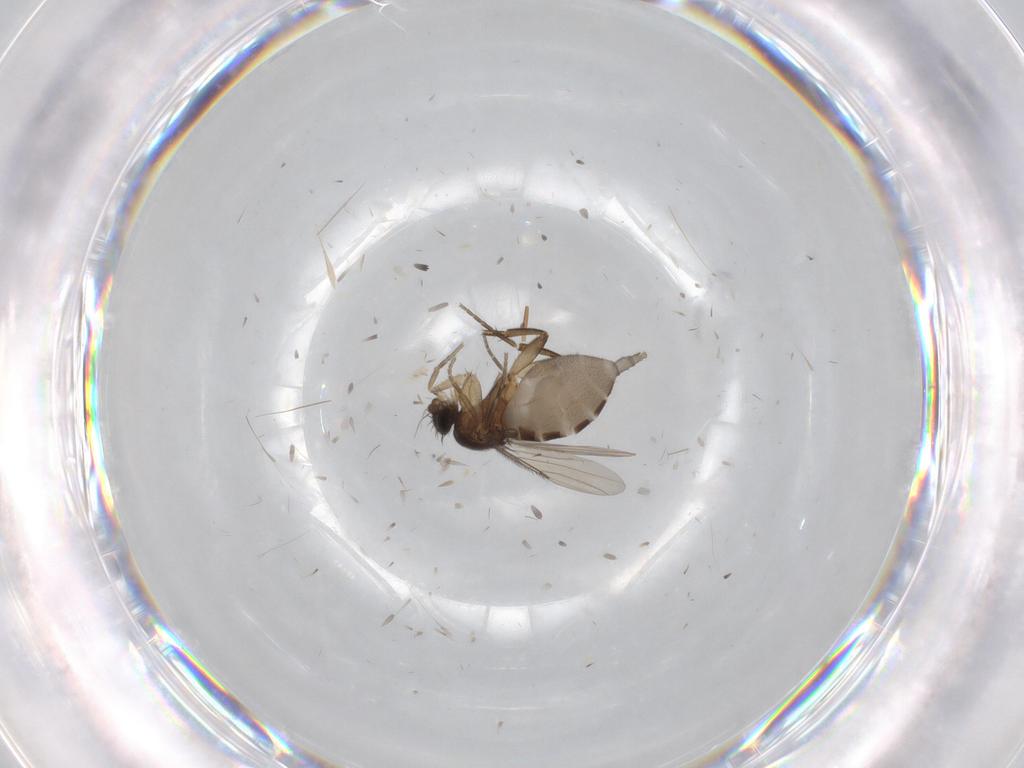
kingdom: Animalia
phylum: Arthropoda
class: Insecta
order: Diptera
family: Phoridae
